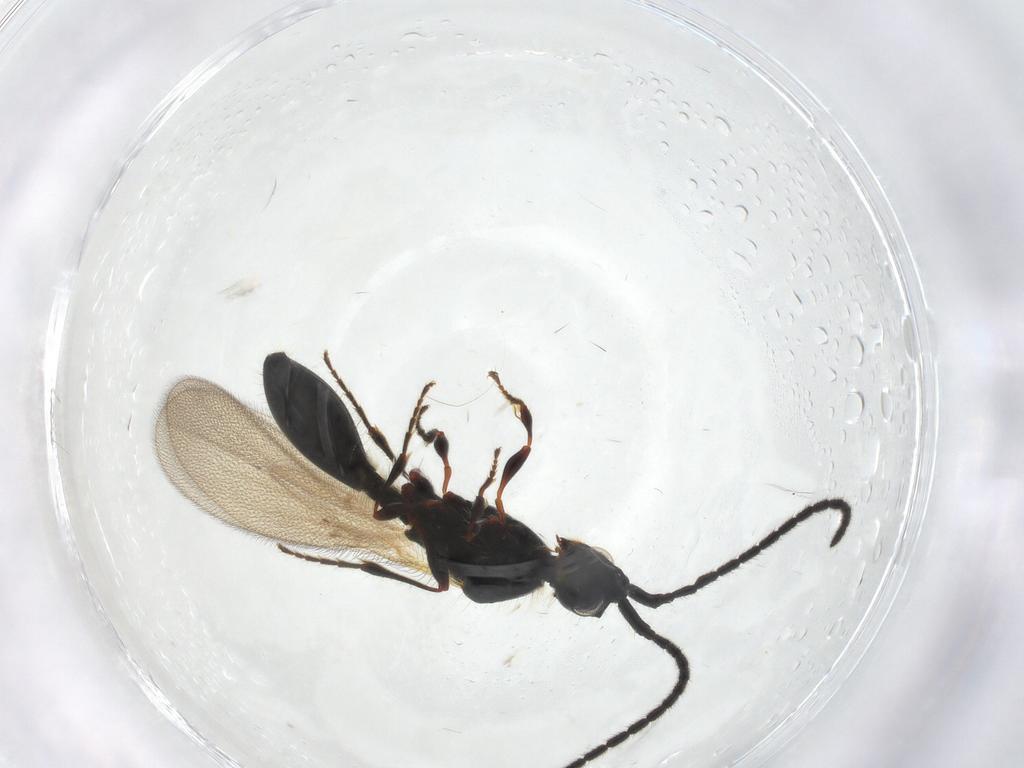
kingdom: Animalia
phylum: Arthropoda
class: Insecta
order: Hymenoptera
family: Diapriidae
